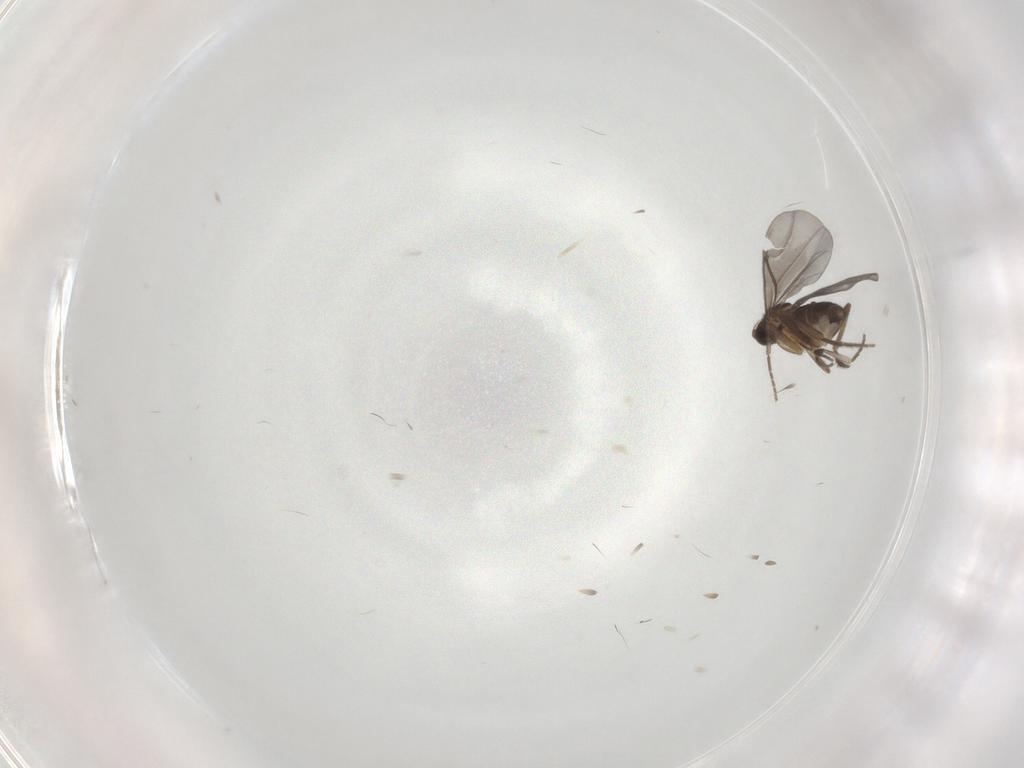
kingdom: Animalia
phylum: Arthropoda
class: Insecta
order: Diptera
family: Phoridae
